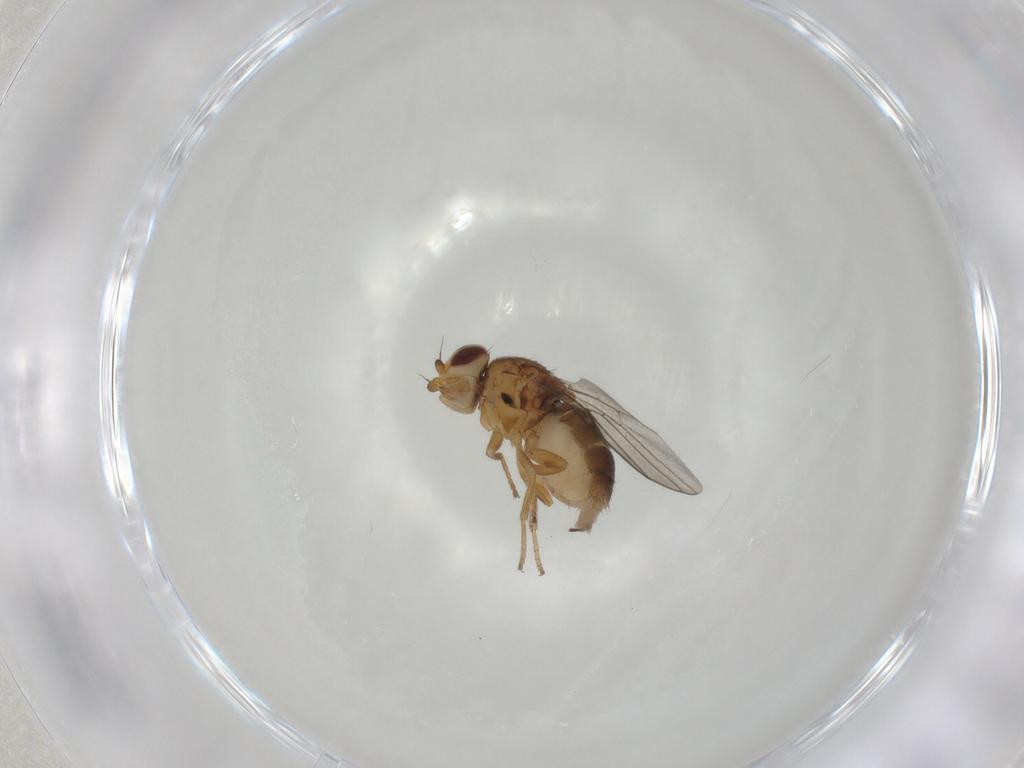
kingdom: Animalia
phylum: Arthropoda
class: Insecta
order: Diptera
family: Chloropidae
